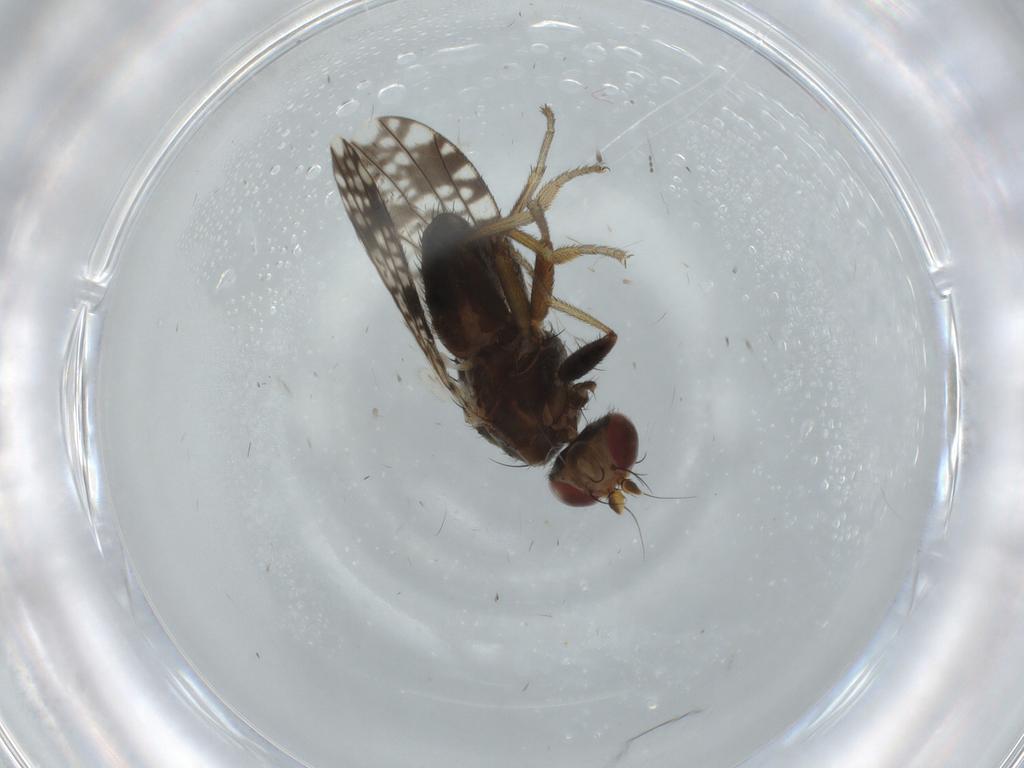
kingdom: Animalia
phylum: Arthropoda
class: Insecta
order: Diptera
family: Tephritidae
